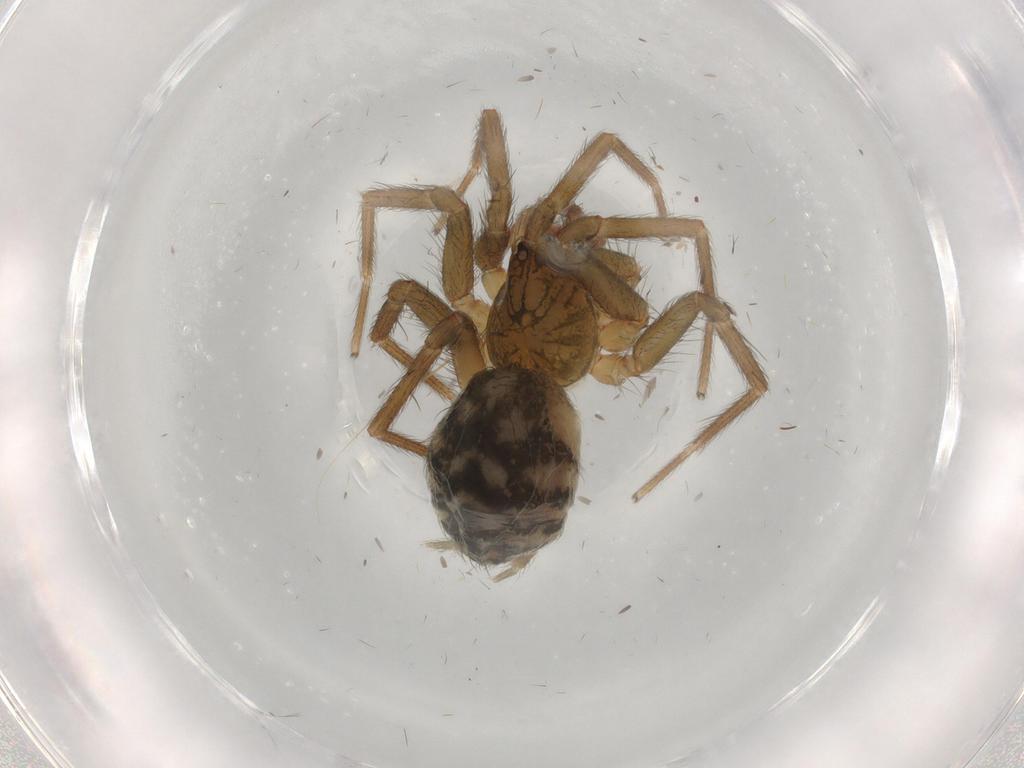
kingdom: Animalia
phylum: Arthropoda
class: Arachnida
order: Araneae
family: Hahniidae
